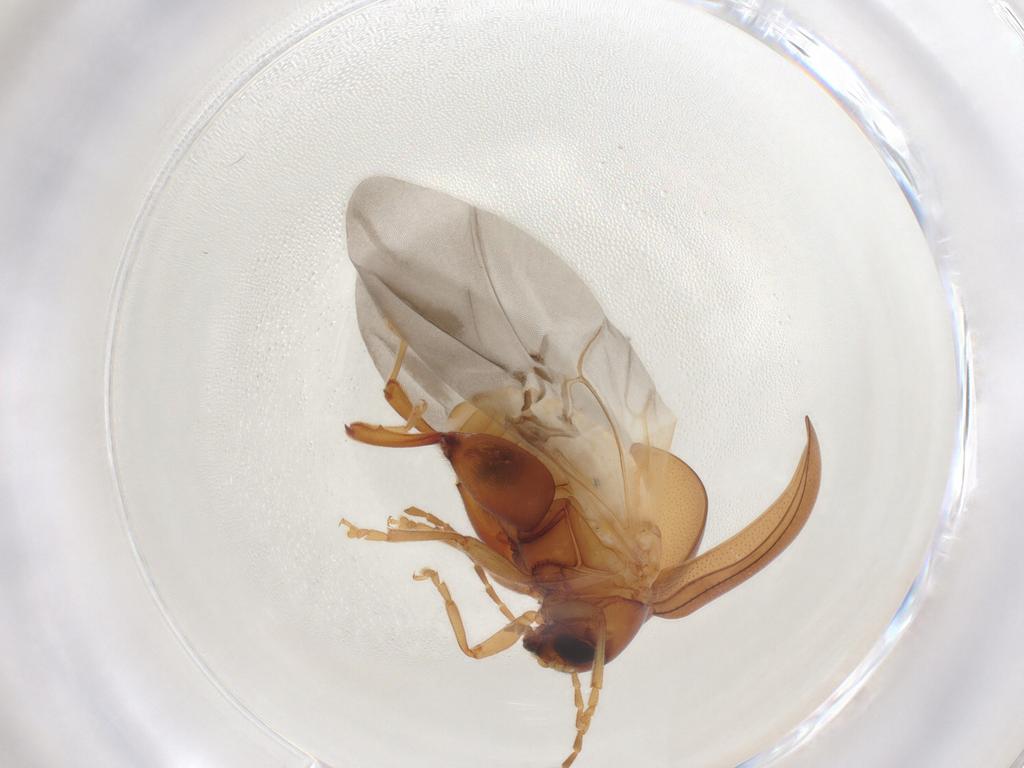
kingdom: Animalia
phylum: Arthropoda
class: Insecta
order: Coleoptera
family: Chrysomelidae
